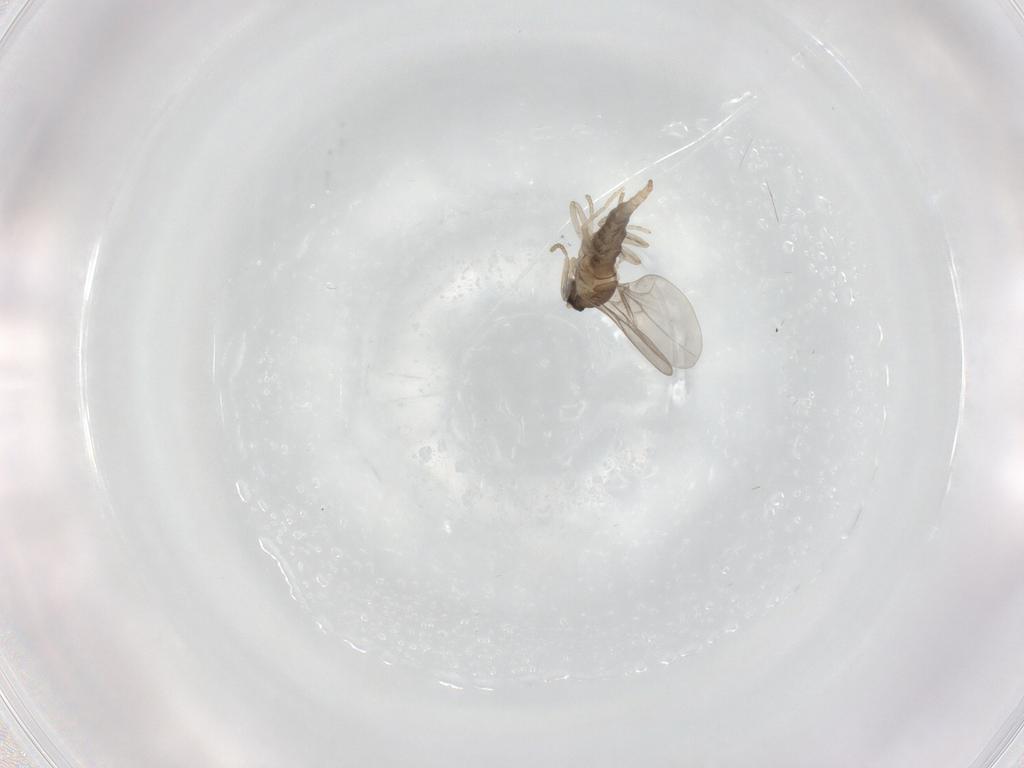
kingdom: Animalia
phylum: Arthropoda
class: Insecta
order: Diptera
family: Cecidomyiidae
